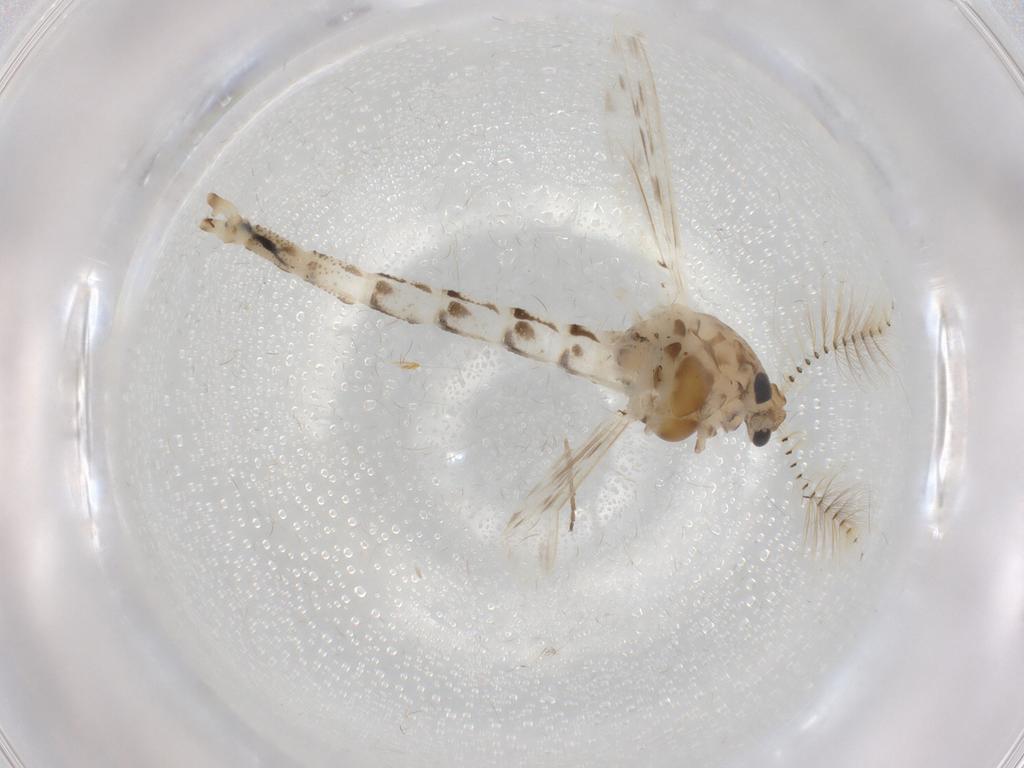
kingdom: Animalia
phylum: Arthropoda
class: Insecta
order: Diptera
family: Chaoboridae
